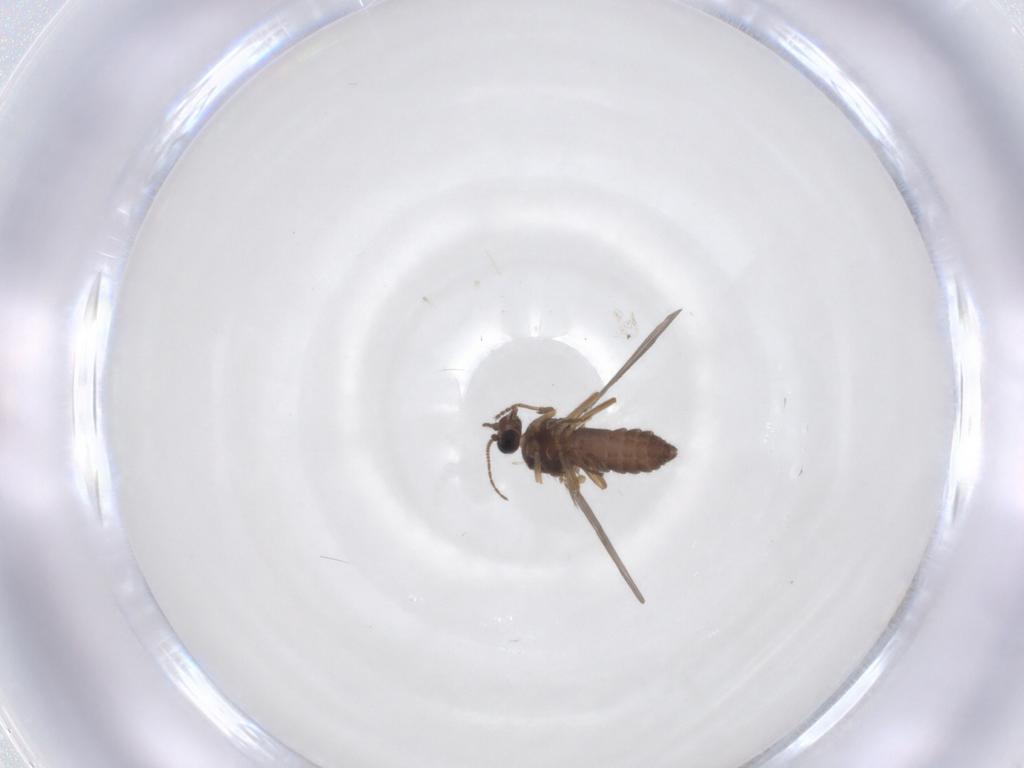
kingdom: Animalia
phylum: Arthropoda
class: Insecta
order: Diptera
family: Ceratopogonidae
